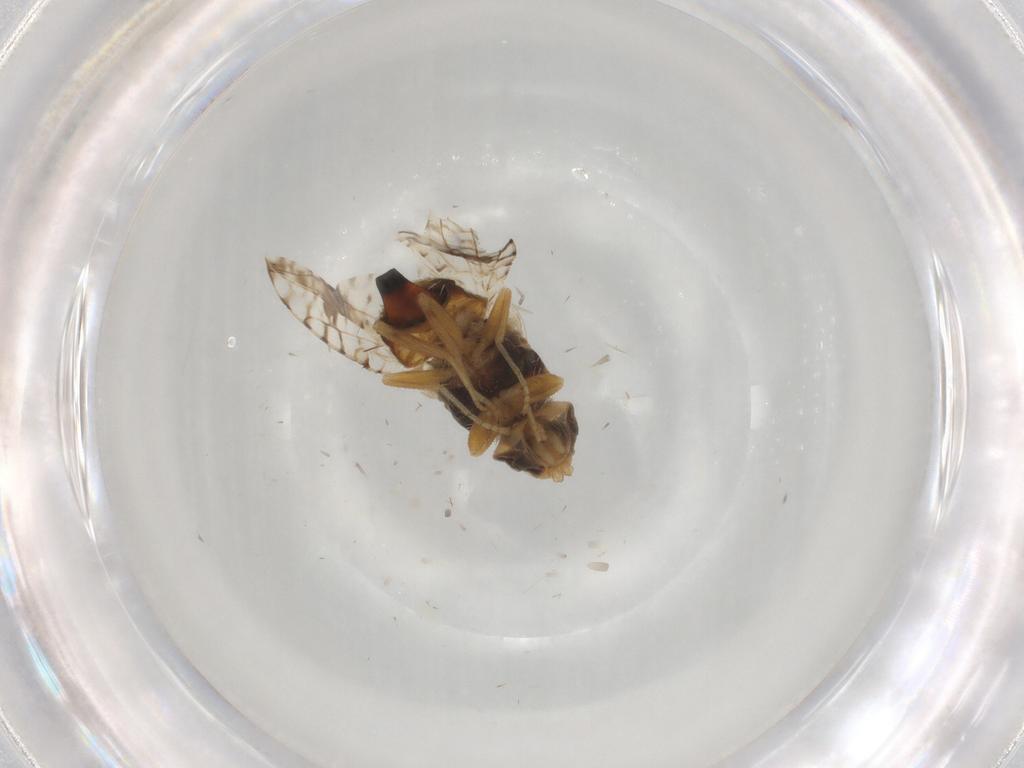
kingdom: Animalia
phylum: Arthropoda
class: Insecta
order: Diptera
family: Tephritidae
